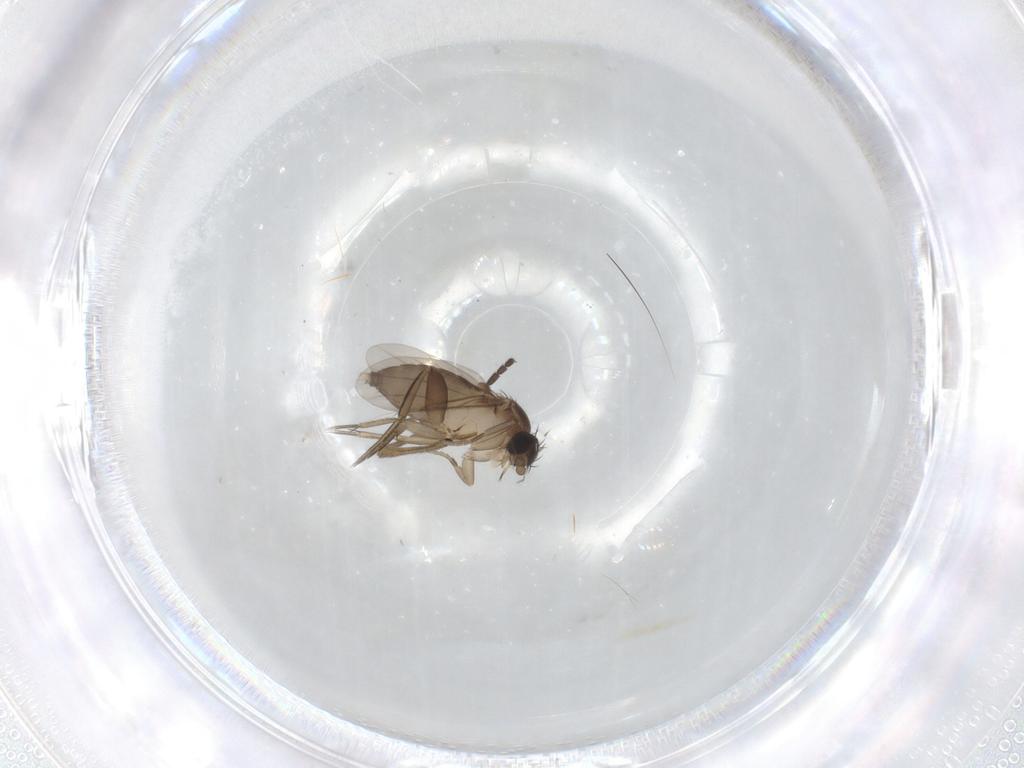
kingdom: Animalia
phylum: Arthropoda
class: Insecta
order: Diptera
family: Phoridae
